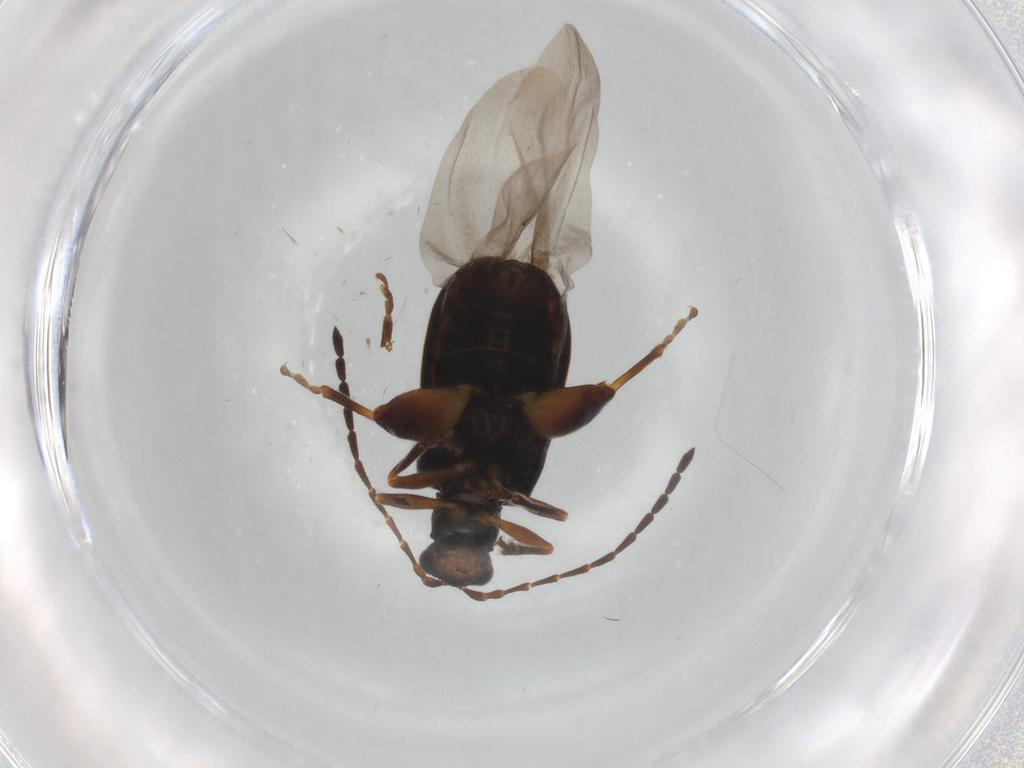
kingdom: Animalia
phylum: Arthropoda
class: Insecta
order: Coleoptera
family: Chrysomelidae
